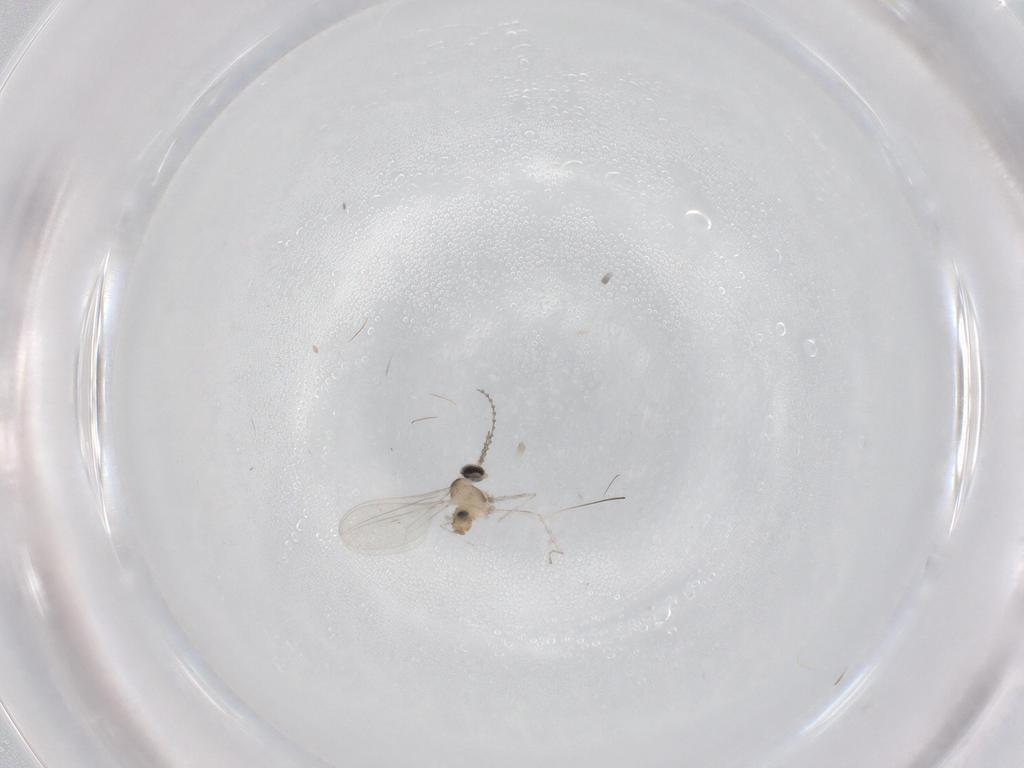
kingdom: Animalia
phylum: Arthropoda
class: Insecta
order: Diptera
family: Cecidomyiidae
